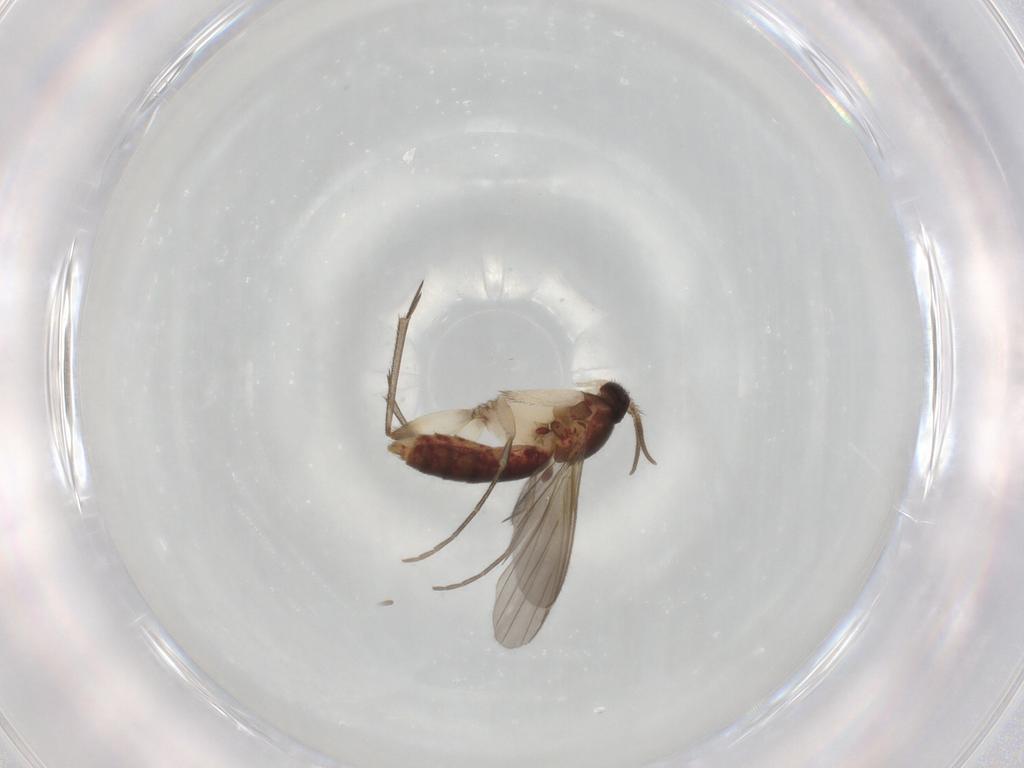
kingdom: Animalia
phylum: Arthropoda
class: Insecta
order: Diptera
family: Mycetophilidae
